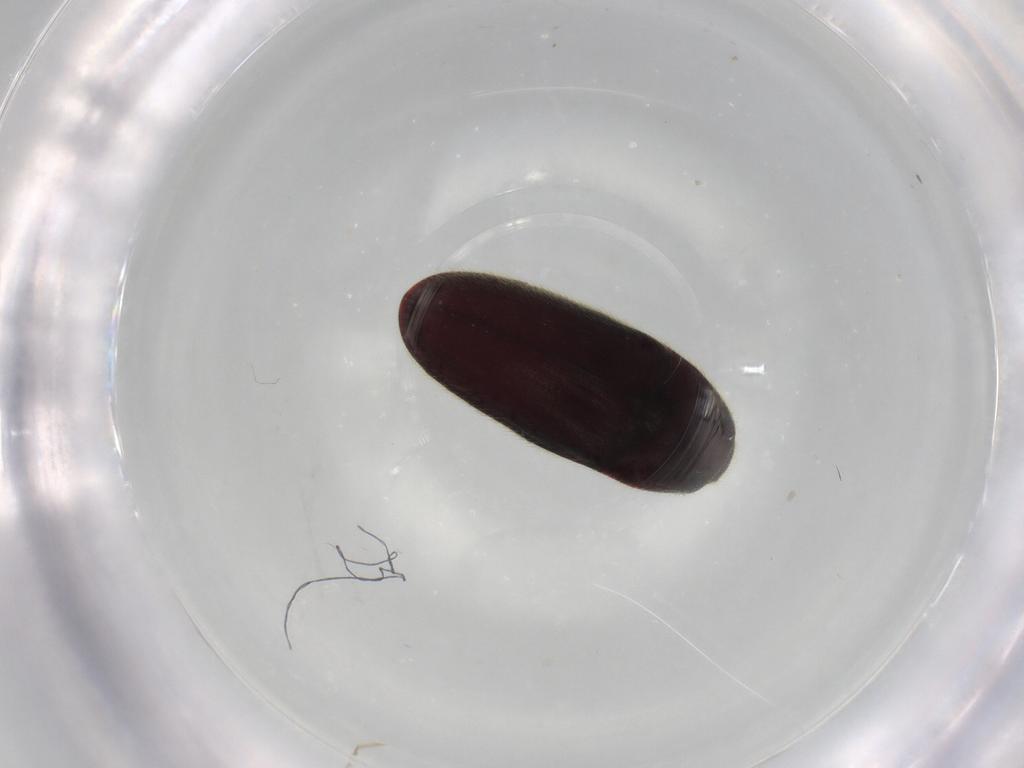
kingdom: Animalia
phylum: Arthropoda
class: Insecta
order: Coleoptera
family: Throscidae
